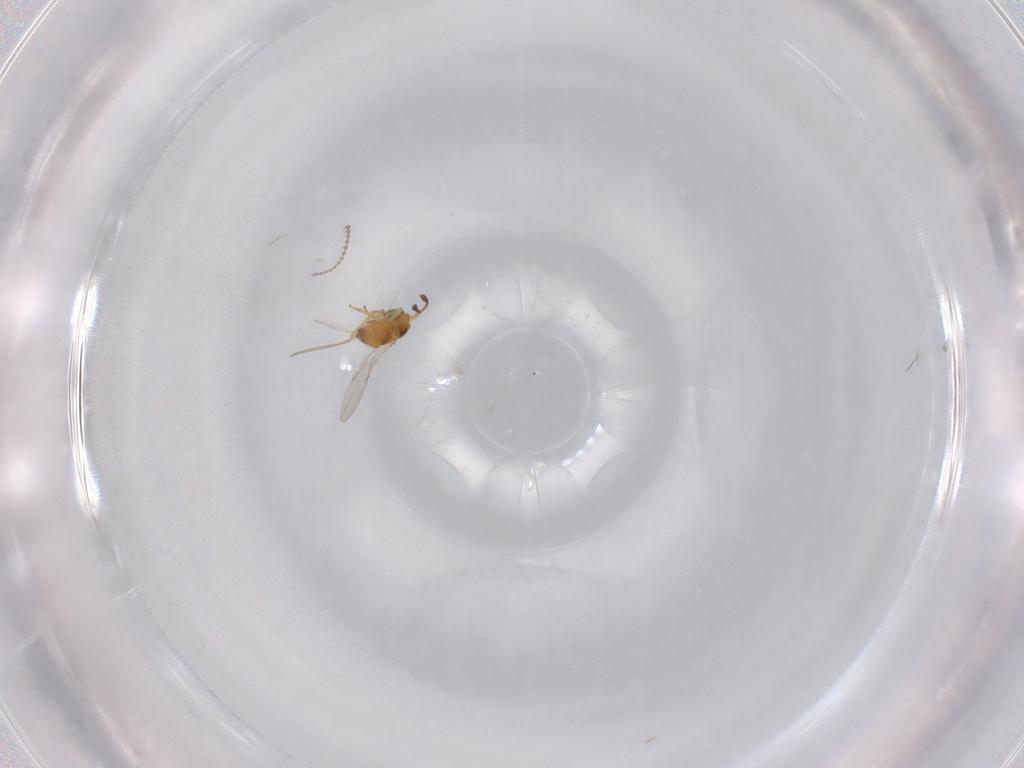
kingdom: Animalia
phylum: Arthropoda
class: Insecta
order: Hymenoptera
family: Encyrtidae
